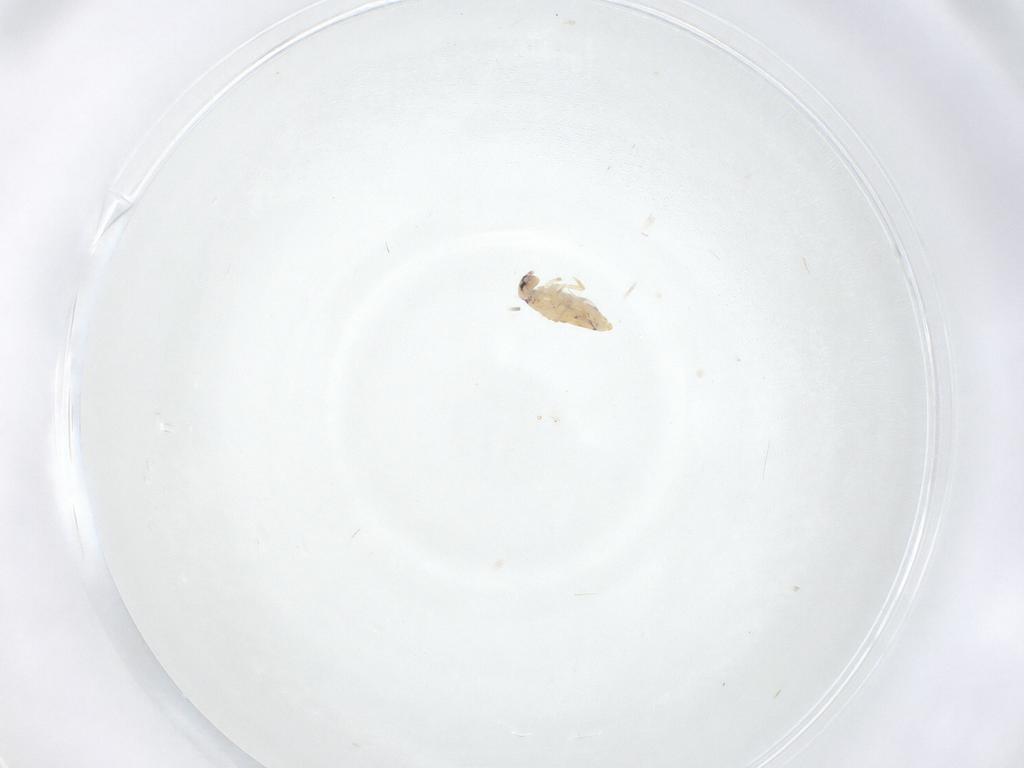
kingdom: Animalia
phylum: Arthropoda
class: Collembola
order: Entomobryomorpha
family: Entomobryidae
